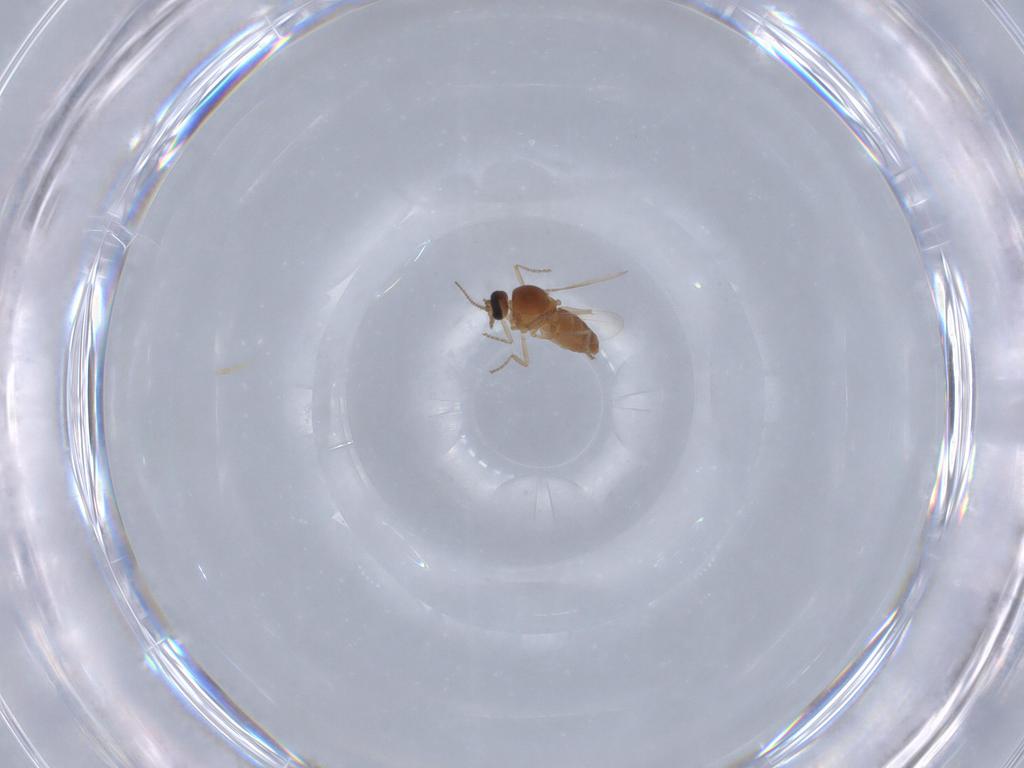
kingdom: Animalia
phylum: Arthropoda
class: Insecta
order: Diptera
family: Ceratopogonidae
